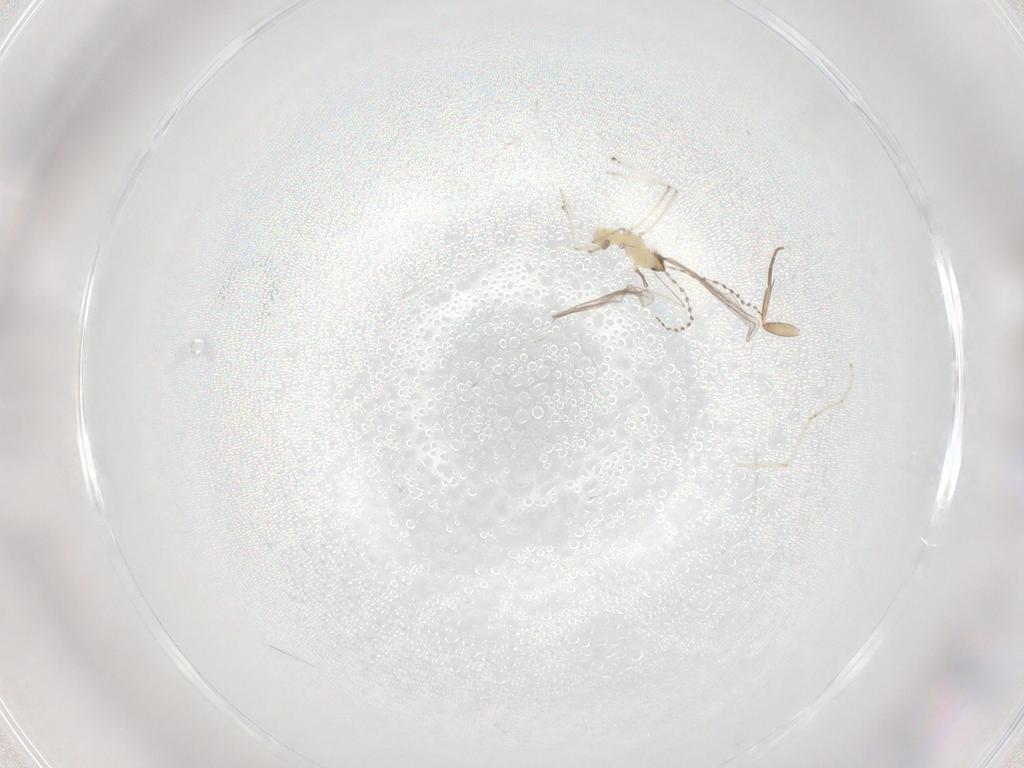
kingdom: Animalia
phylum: Arthropoda
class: Insecta
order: Diptera
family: Phoridae
